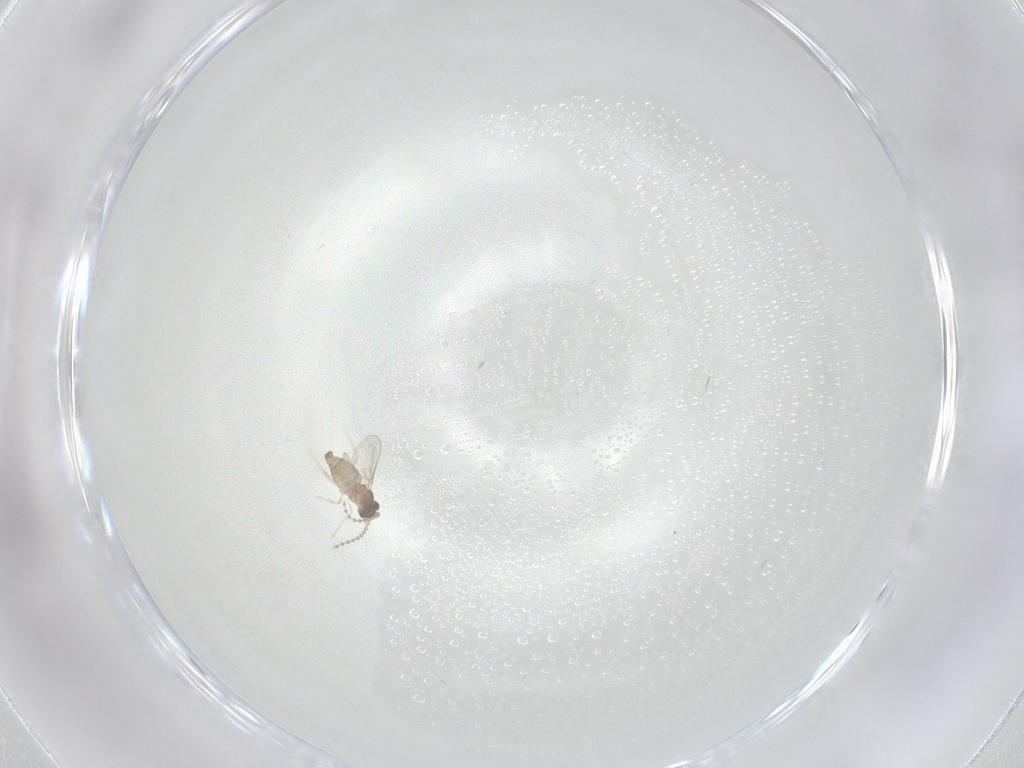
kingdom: Animalia
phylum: Arthropoda
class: Insecta
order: Diptera
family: Cecidomyiidae
